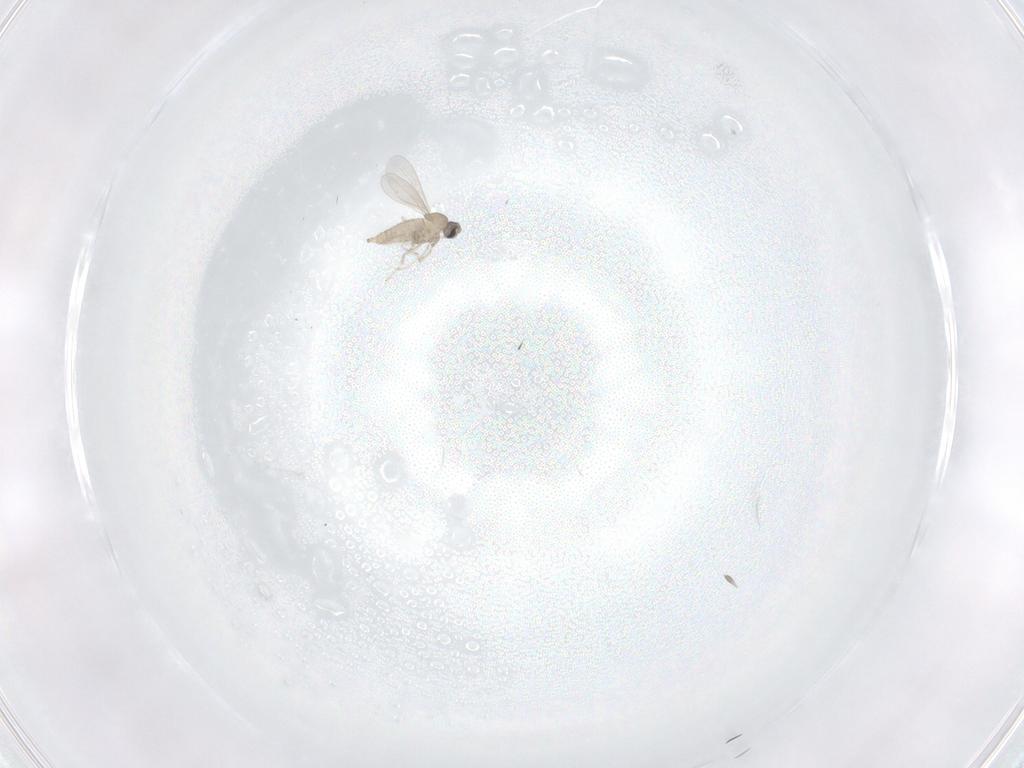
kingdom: Animalia
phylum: Arthropoda
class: Insecta
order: Diptera
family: Cecidomyiidae
